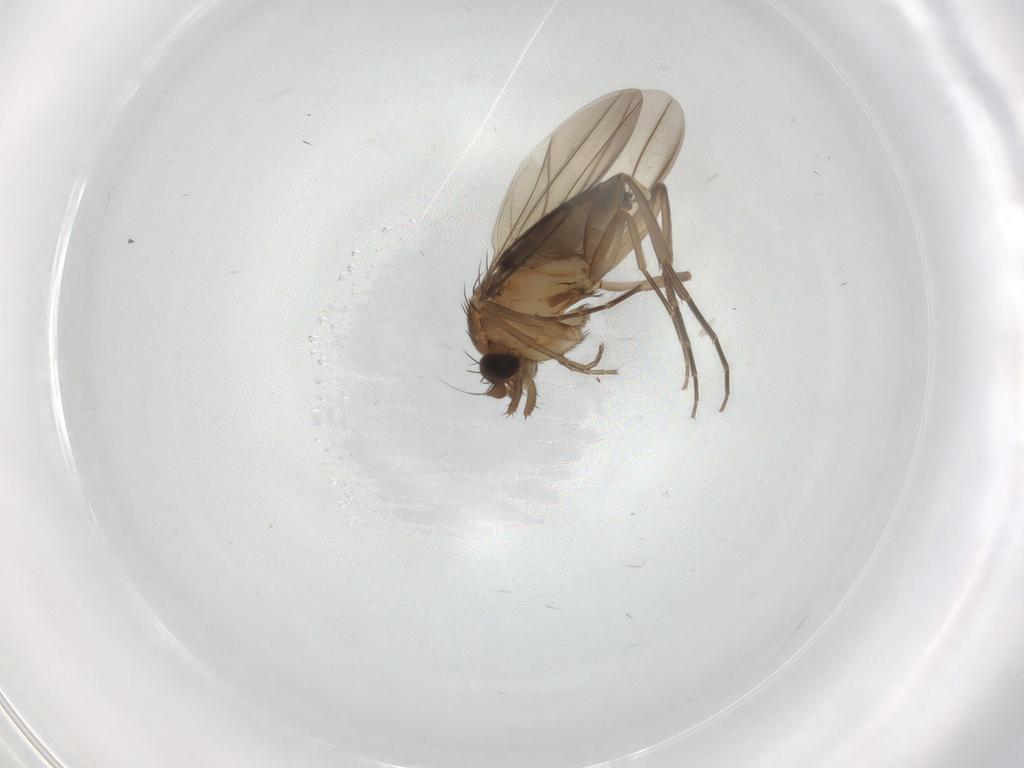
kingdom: Animalia
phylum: Arthropoda
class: Insecta
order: Diptera
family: Phoridae
